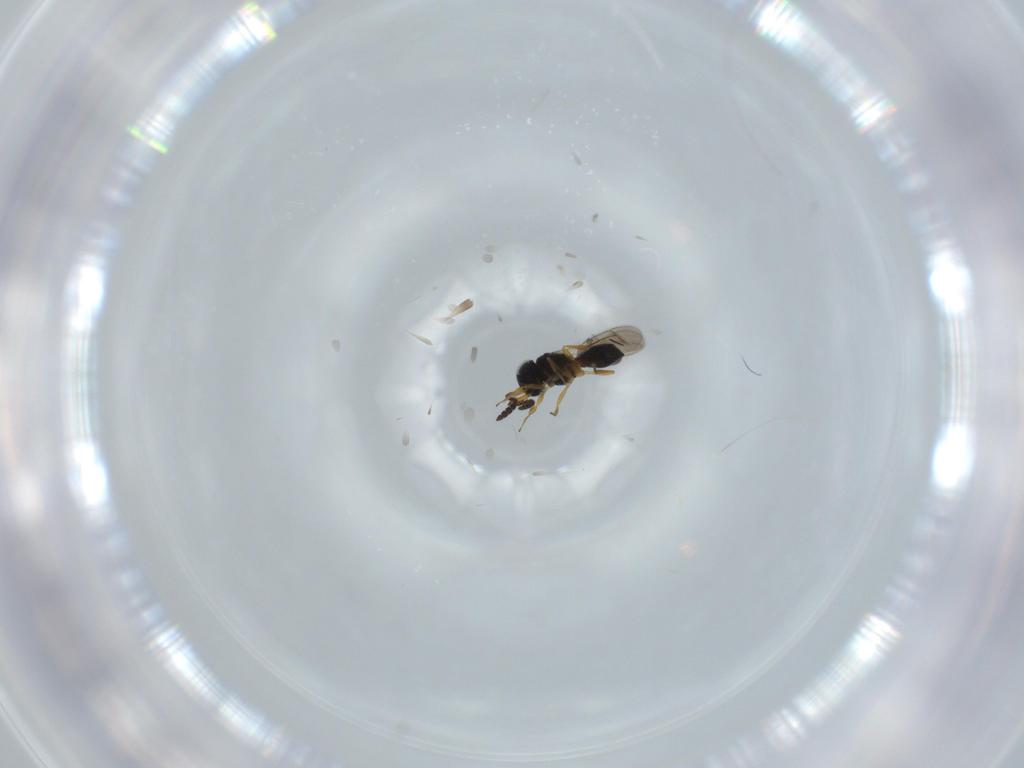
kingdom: Animalia
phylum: Arthropoda
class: Insecta
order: Hymenoptera
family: Scelionidae
